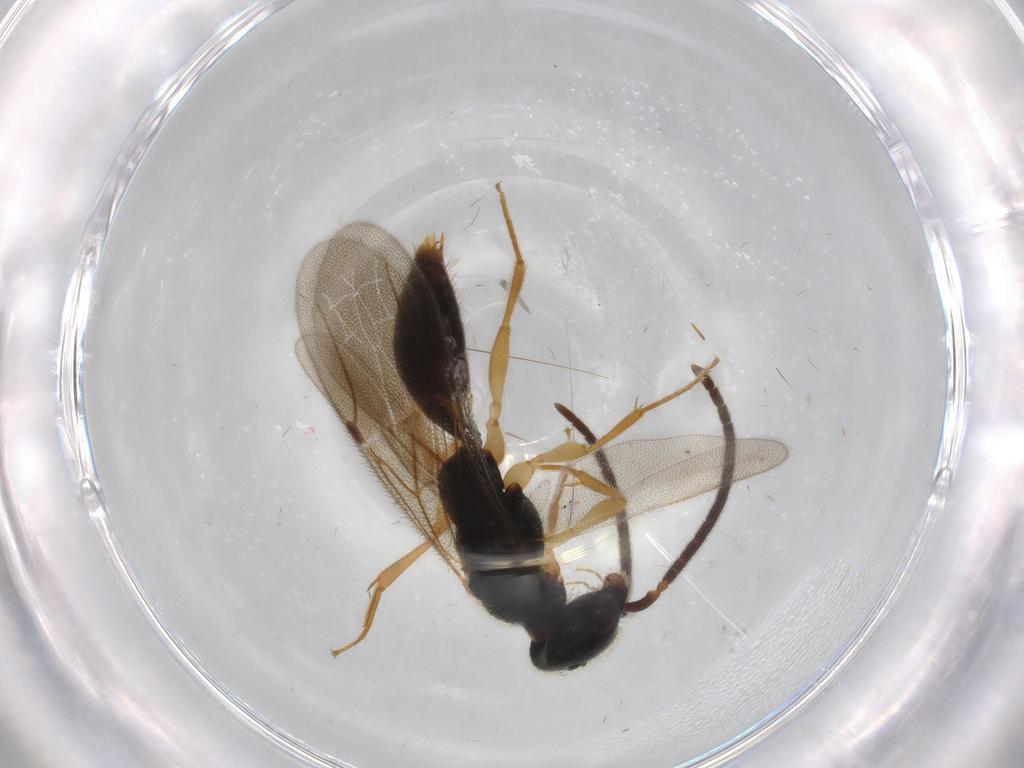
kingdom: Animalia
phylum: Arthropoda
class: Insecta
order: Hymenoptera
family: Bethylidae
